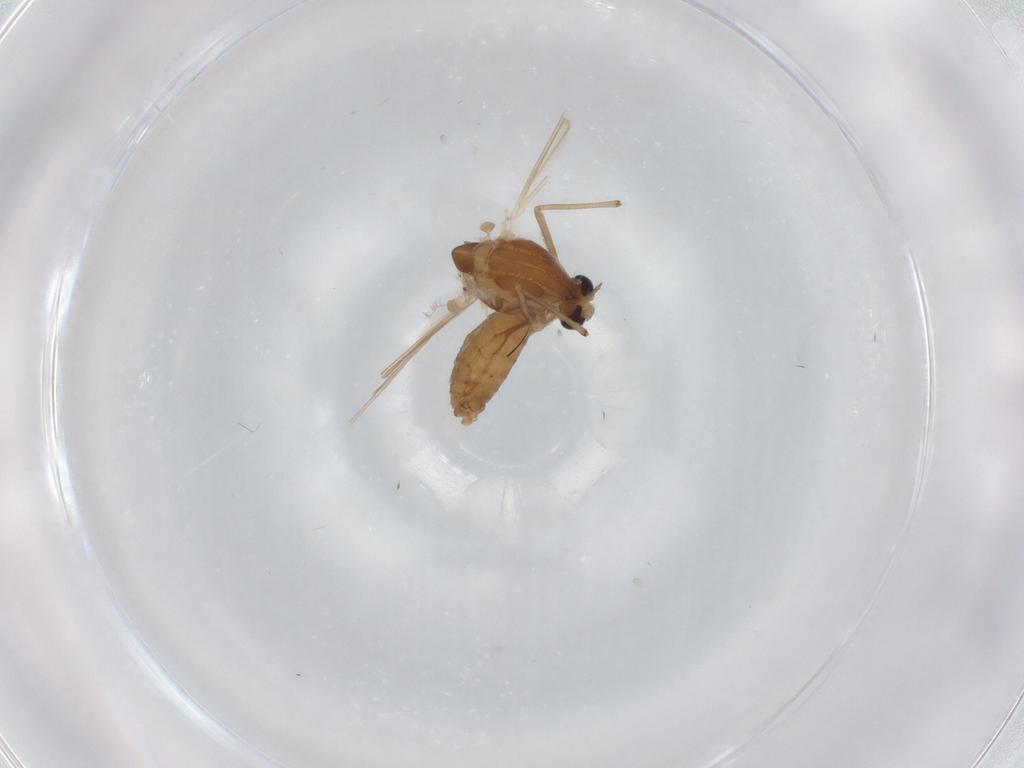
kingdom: Animalia
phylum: Arthropoda
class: Insecta
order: Diptera
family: Chironomidae
